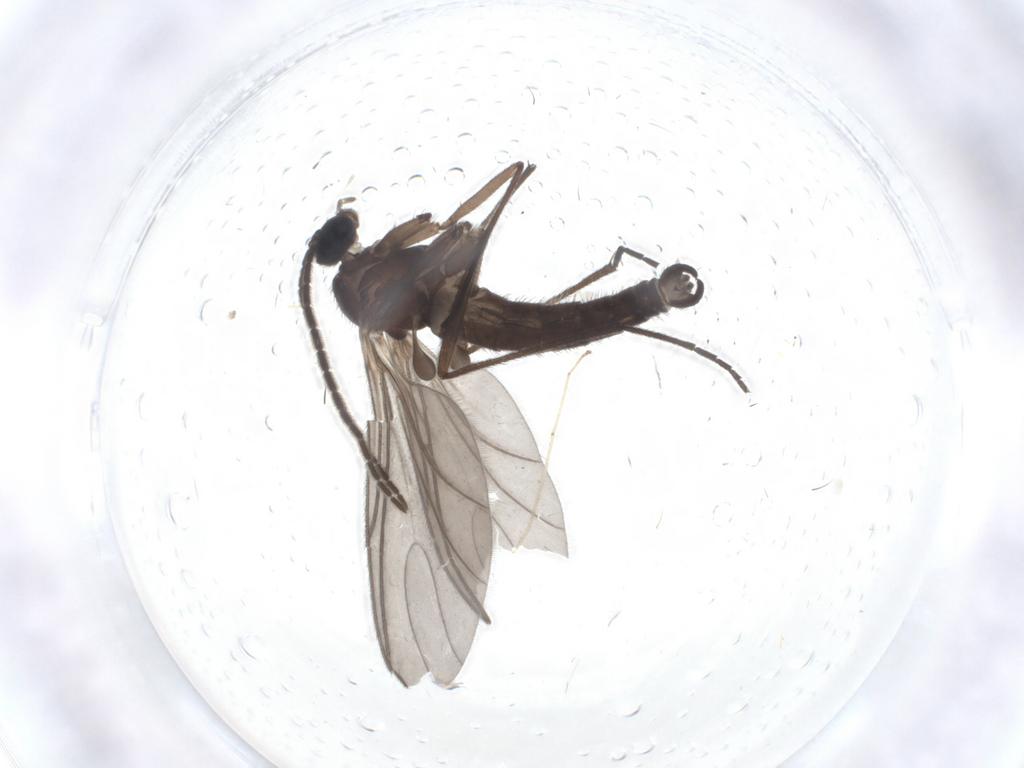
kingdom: Animalia
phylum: Arthropoda
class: Insecta
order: Diptera
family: Sciaridae
